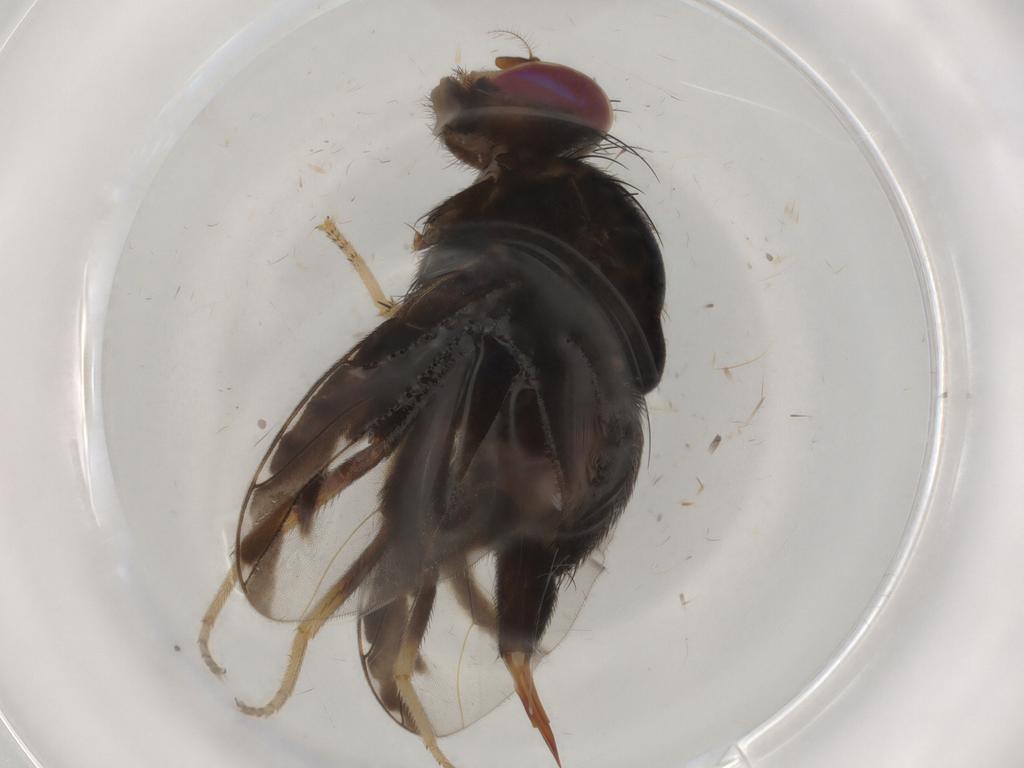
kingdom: Animalia
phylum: Arthropoda
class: Insecta
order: Diptera
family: Tephritidae
